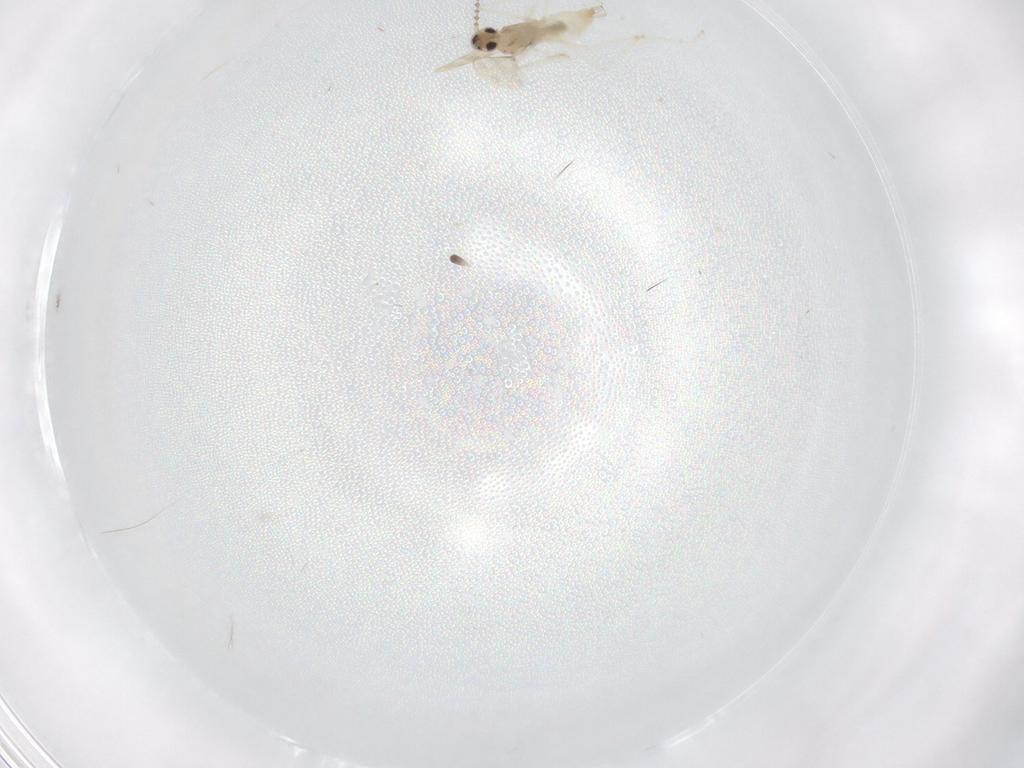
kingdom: Animalia
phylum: Arthropoda
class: Insecta
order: Diptera
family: Cecidomyiidae
